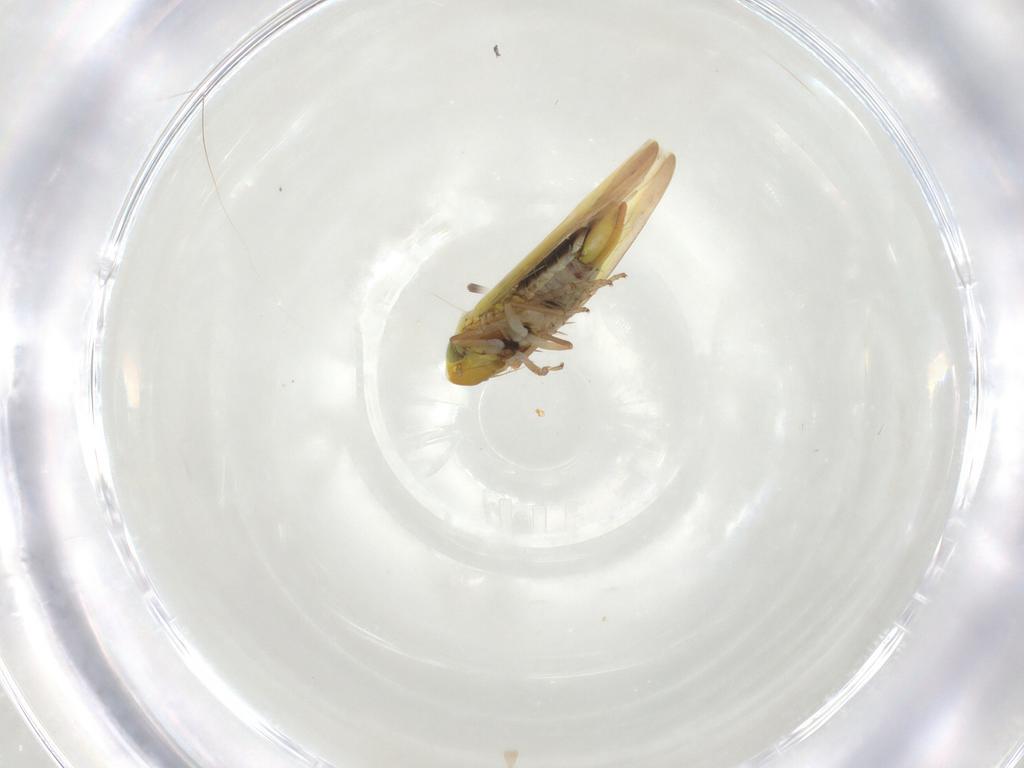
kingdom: Animalia
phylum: Arthropoda
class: Insecta
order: Hemiptera
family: Cicadellidae
